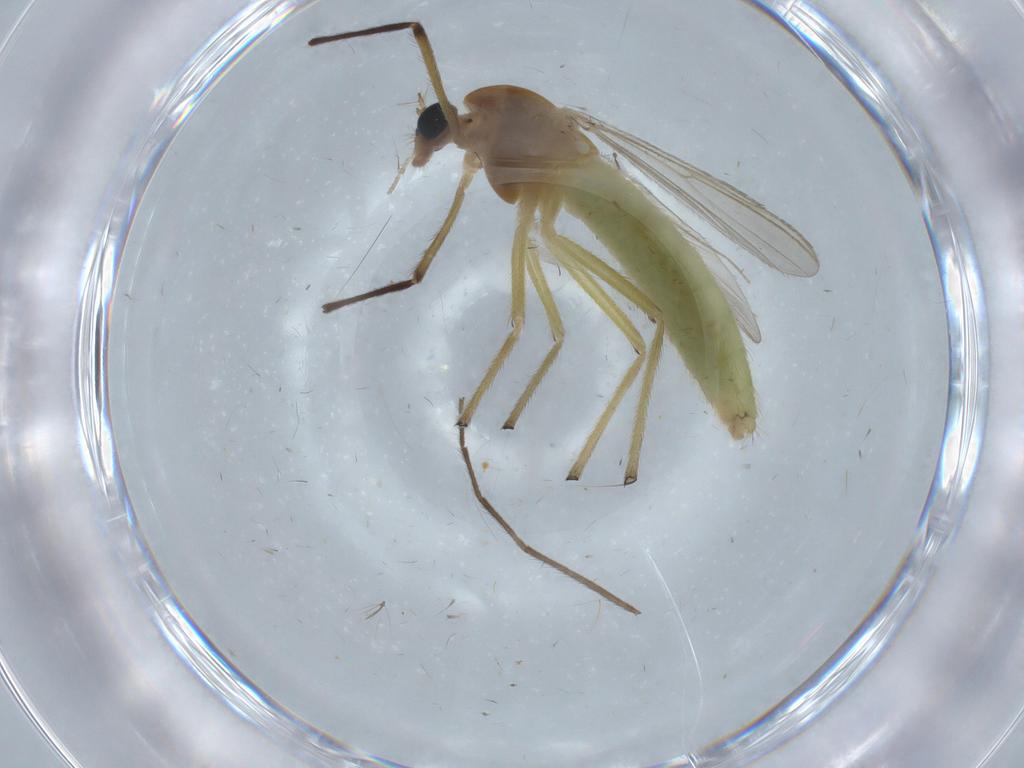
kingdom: Animalia
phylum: Arthropoda
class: Insecta
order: Diptera
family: Chironomidae
